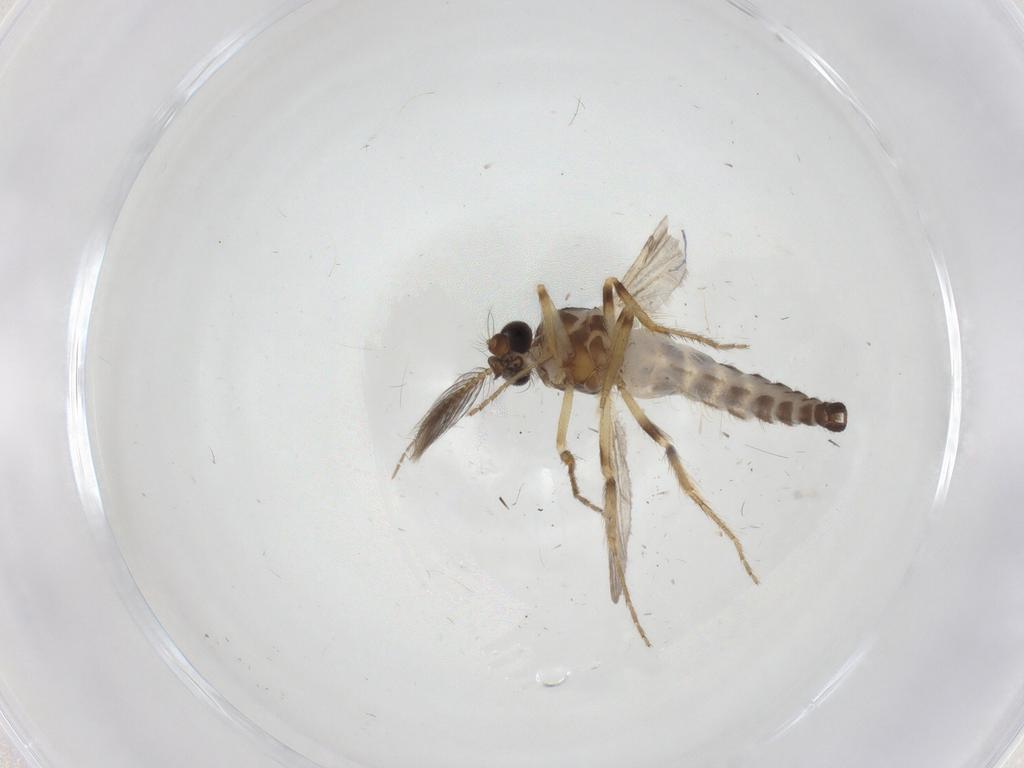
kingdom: Animalia
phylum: Arthropoda
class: Insecta
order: Diptera
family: Ceratopogonidae
